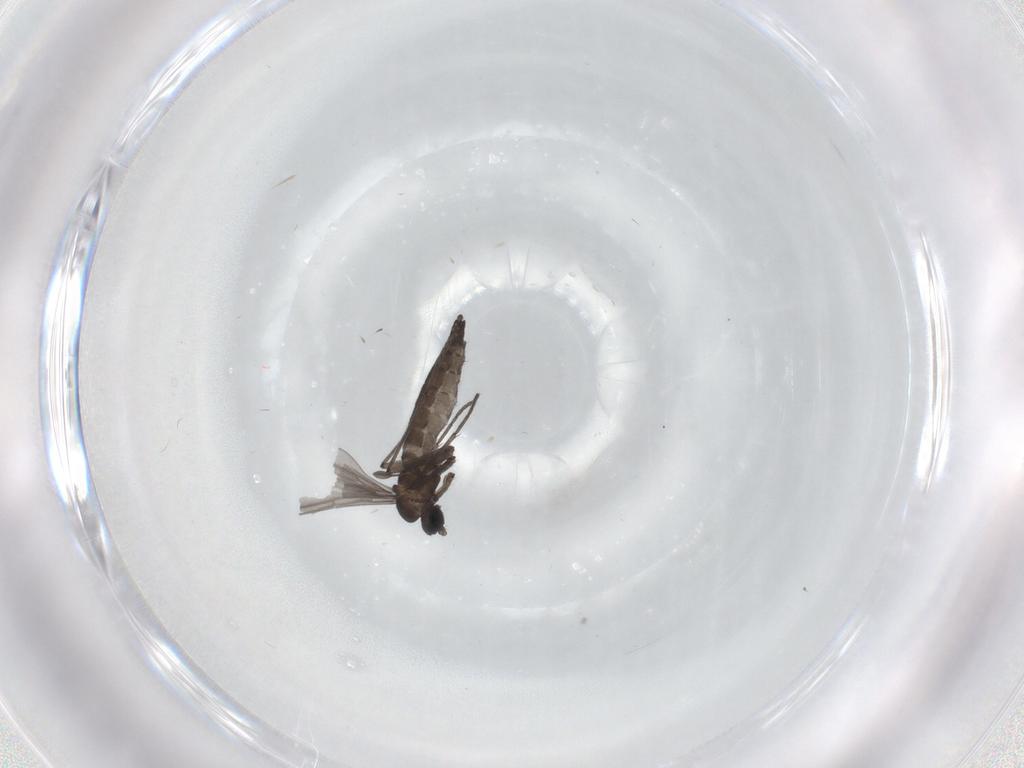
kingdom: Animalia
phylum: Arthropoda
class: Insecta
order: Diptera
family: Sciaridae
